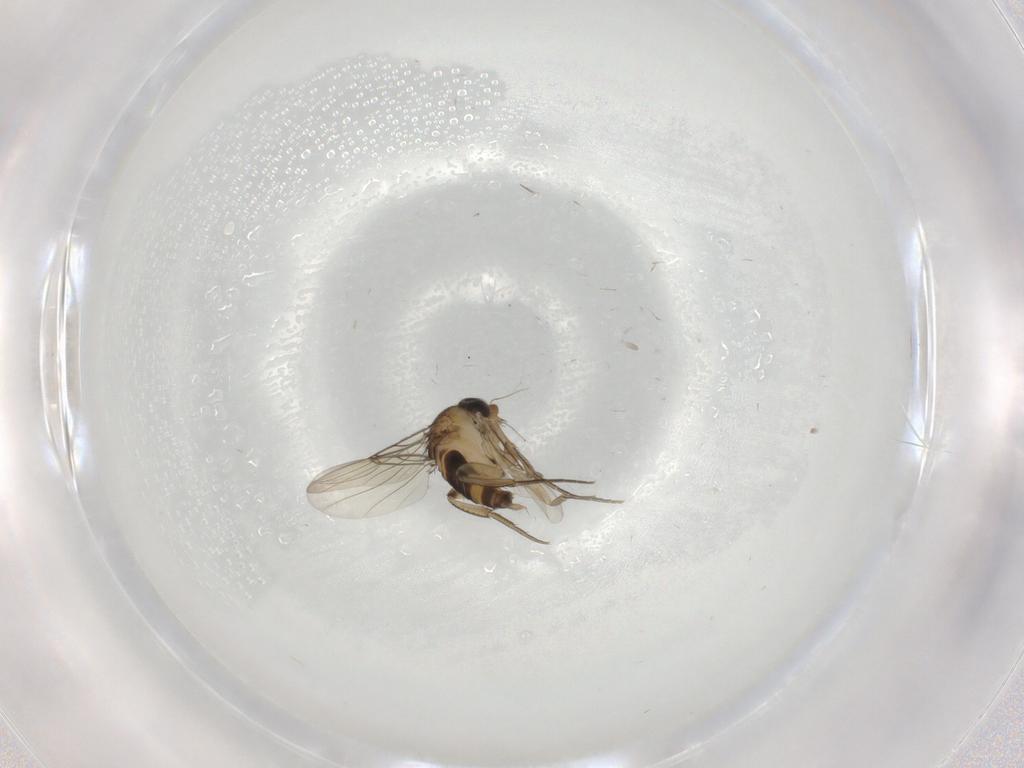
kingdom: Animalia
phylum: Arthropoda
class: Insecta
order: Diptera
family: Phoridae
